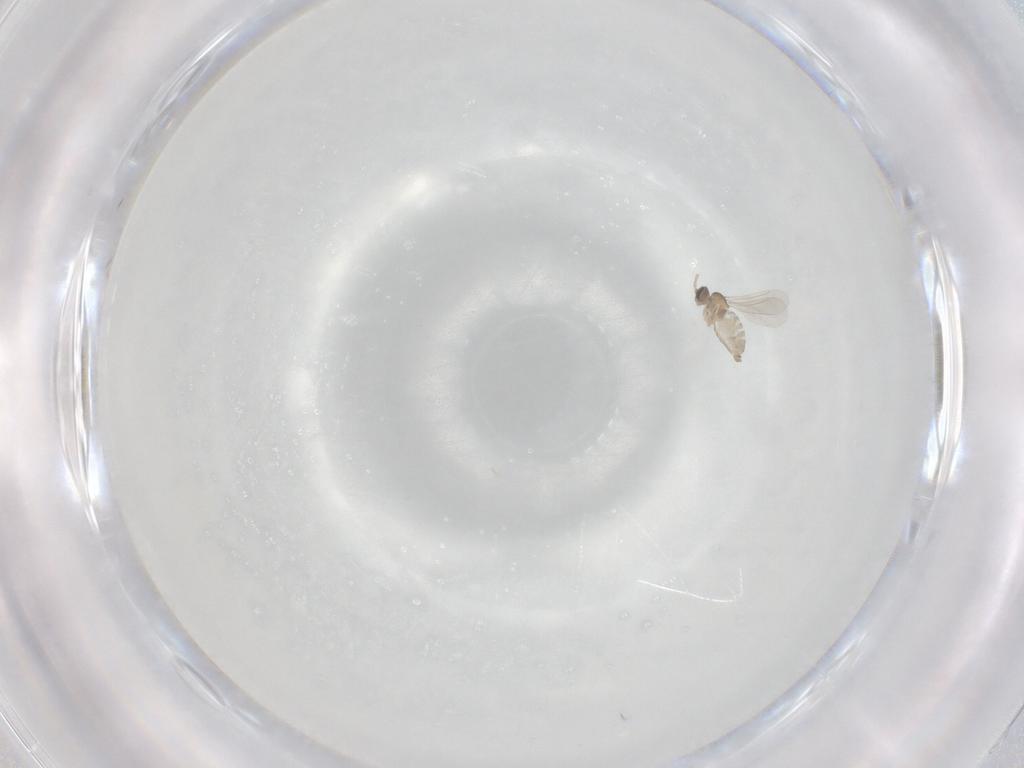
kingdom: Animalia
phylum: Arthropoda
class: Insecta
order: Diptera
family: Cecidomyiidae
